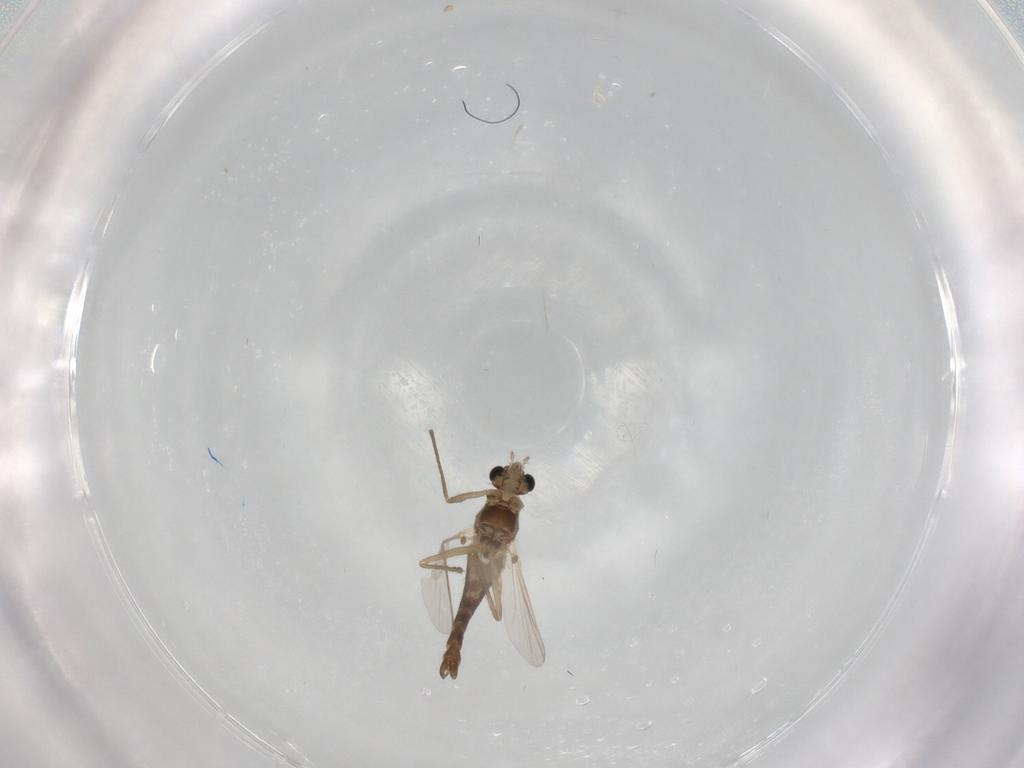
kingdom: Animalia
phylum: Arthropoda
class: Insecta
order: Diptera
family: Chironomidae
